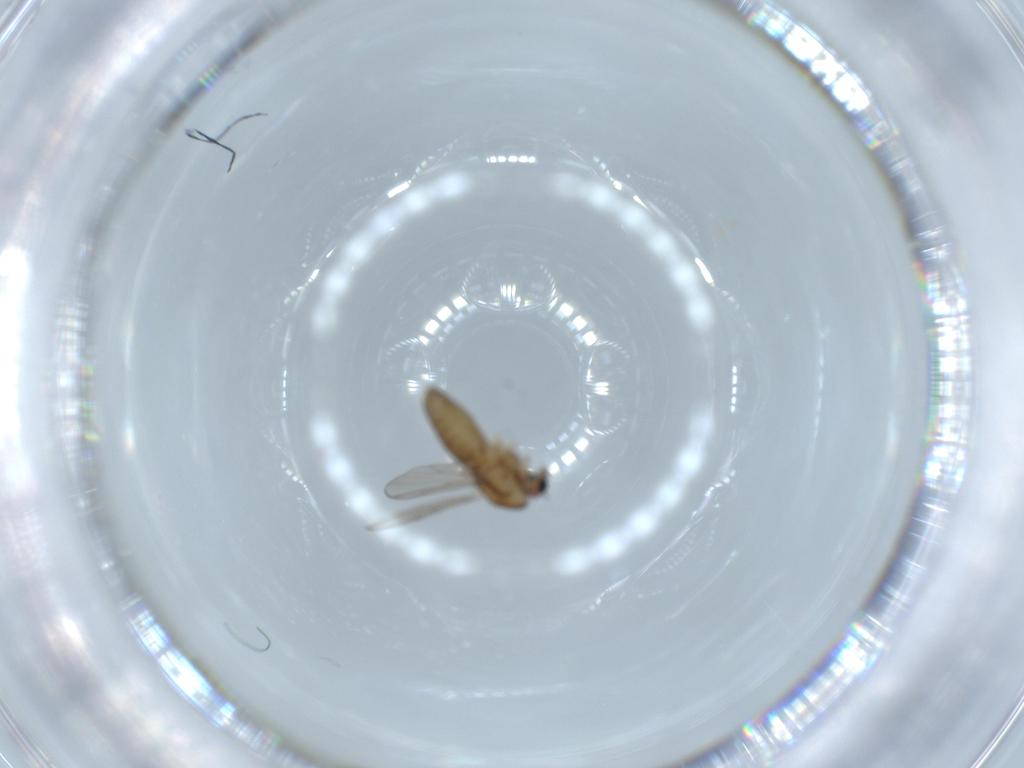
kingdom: Animalia
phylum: Arthropoda
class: Insecta
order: Diptera
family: Chironomidae
